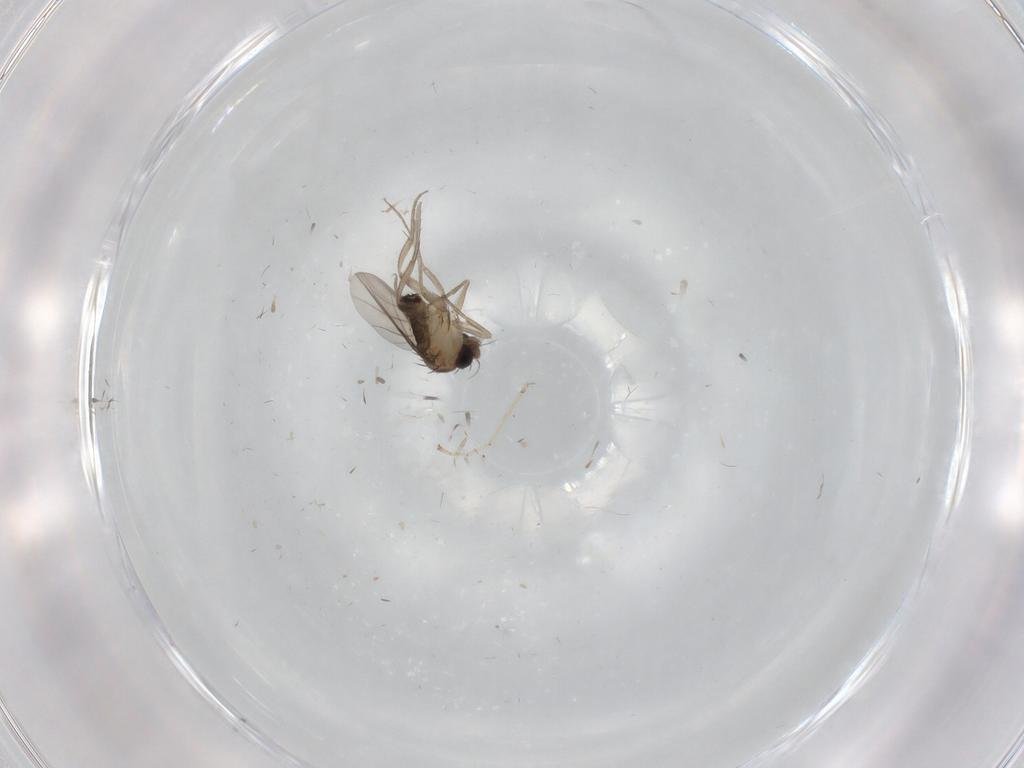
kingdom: Animalia
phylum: Arthropoda
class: Insecta
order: Diptera
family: Phoridae
